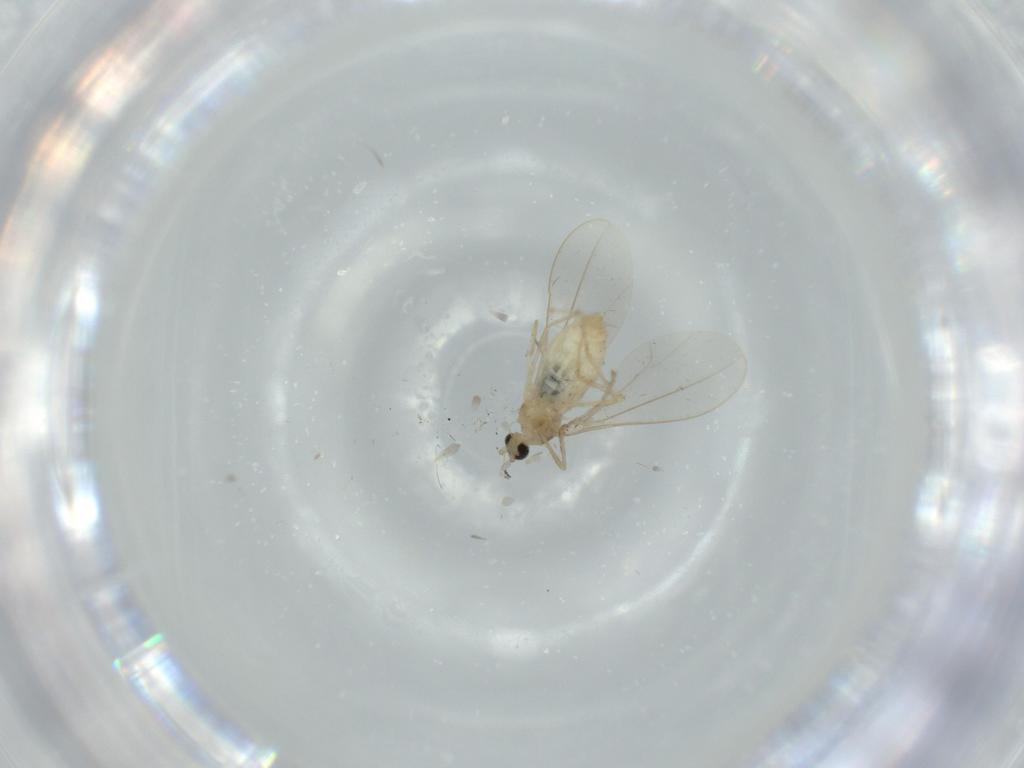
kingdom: Animalia
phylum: Arthropoda
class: Insecta
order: Diptera
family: Cecidomyiidae
